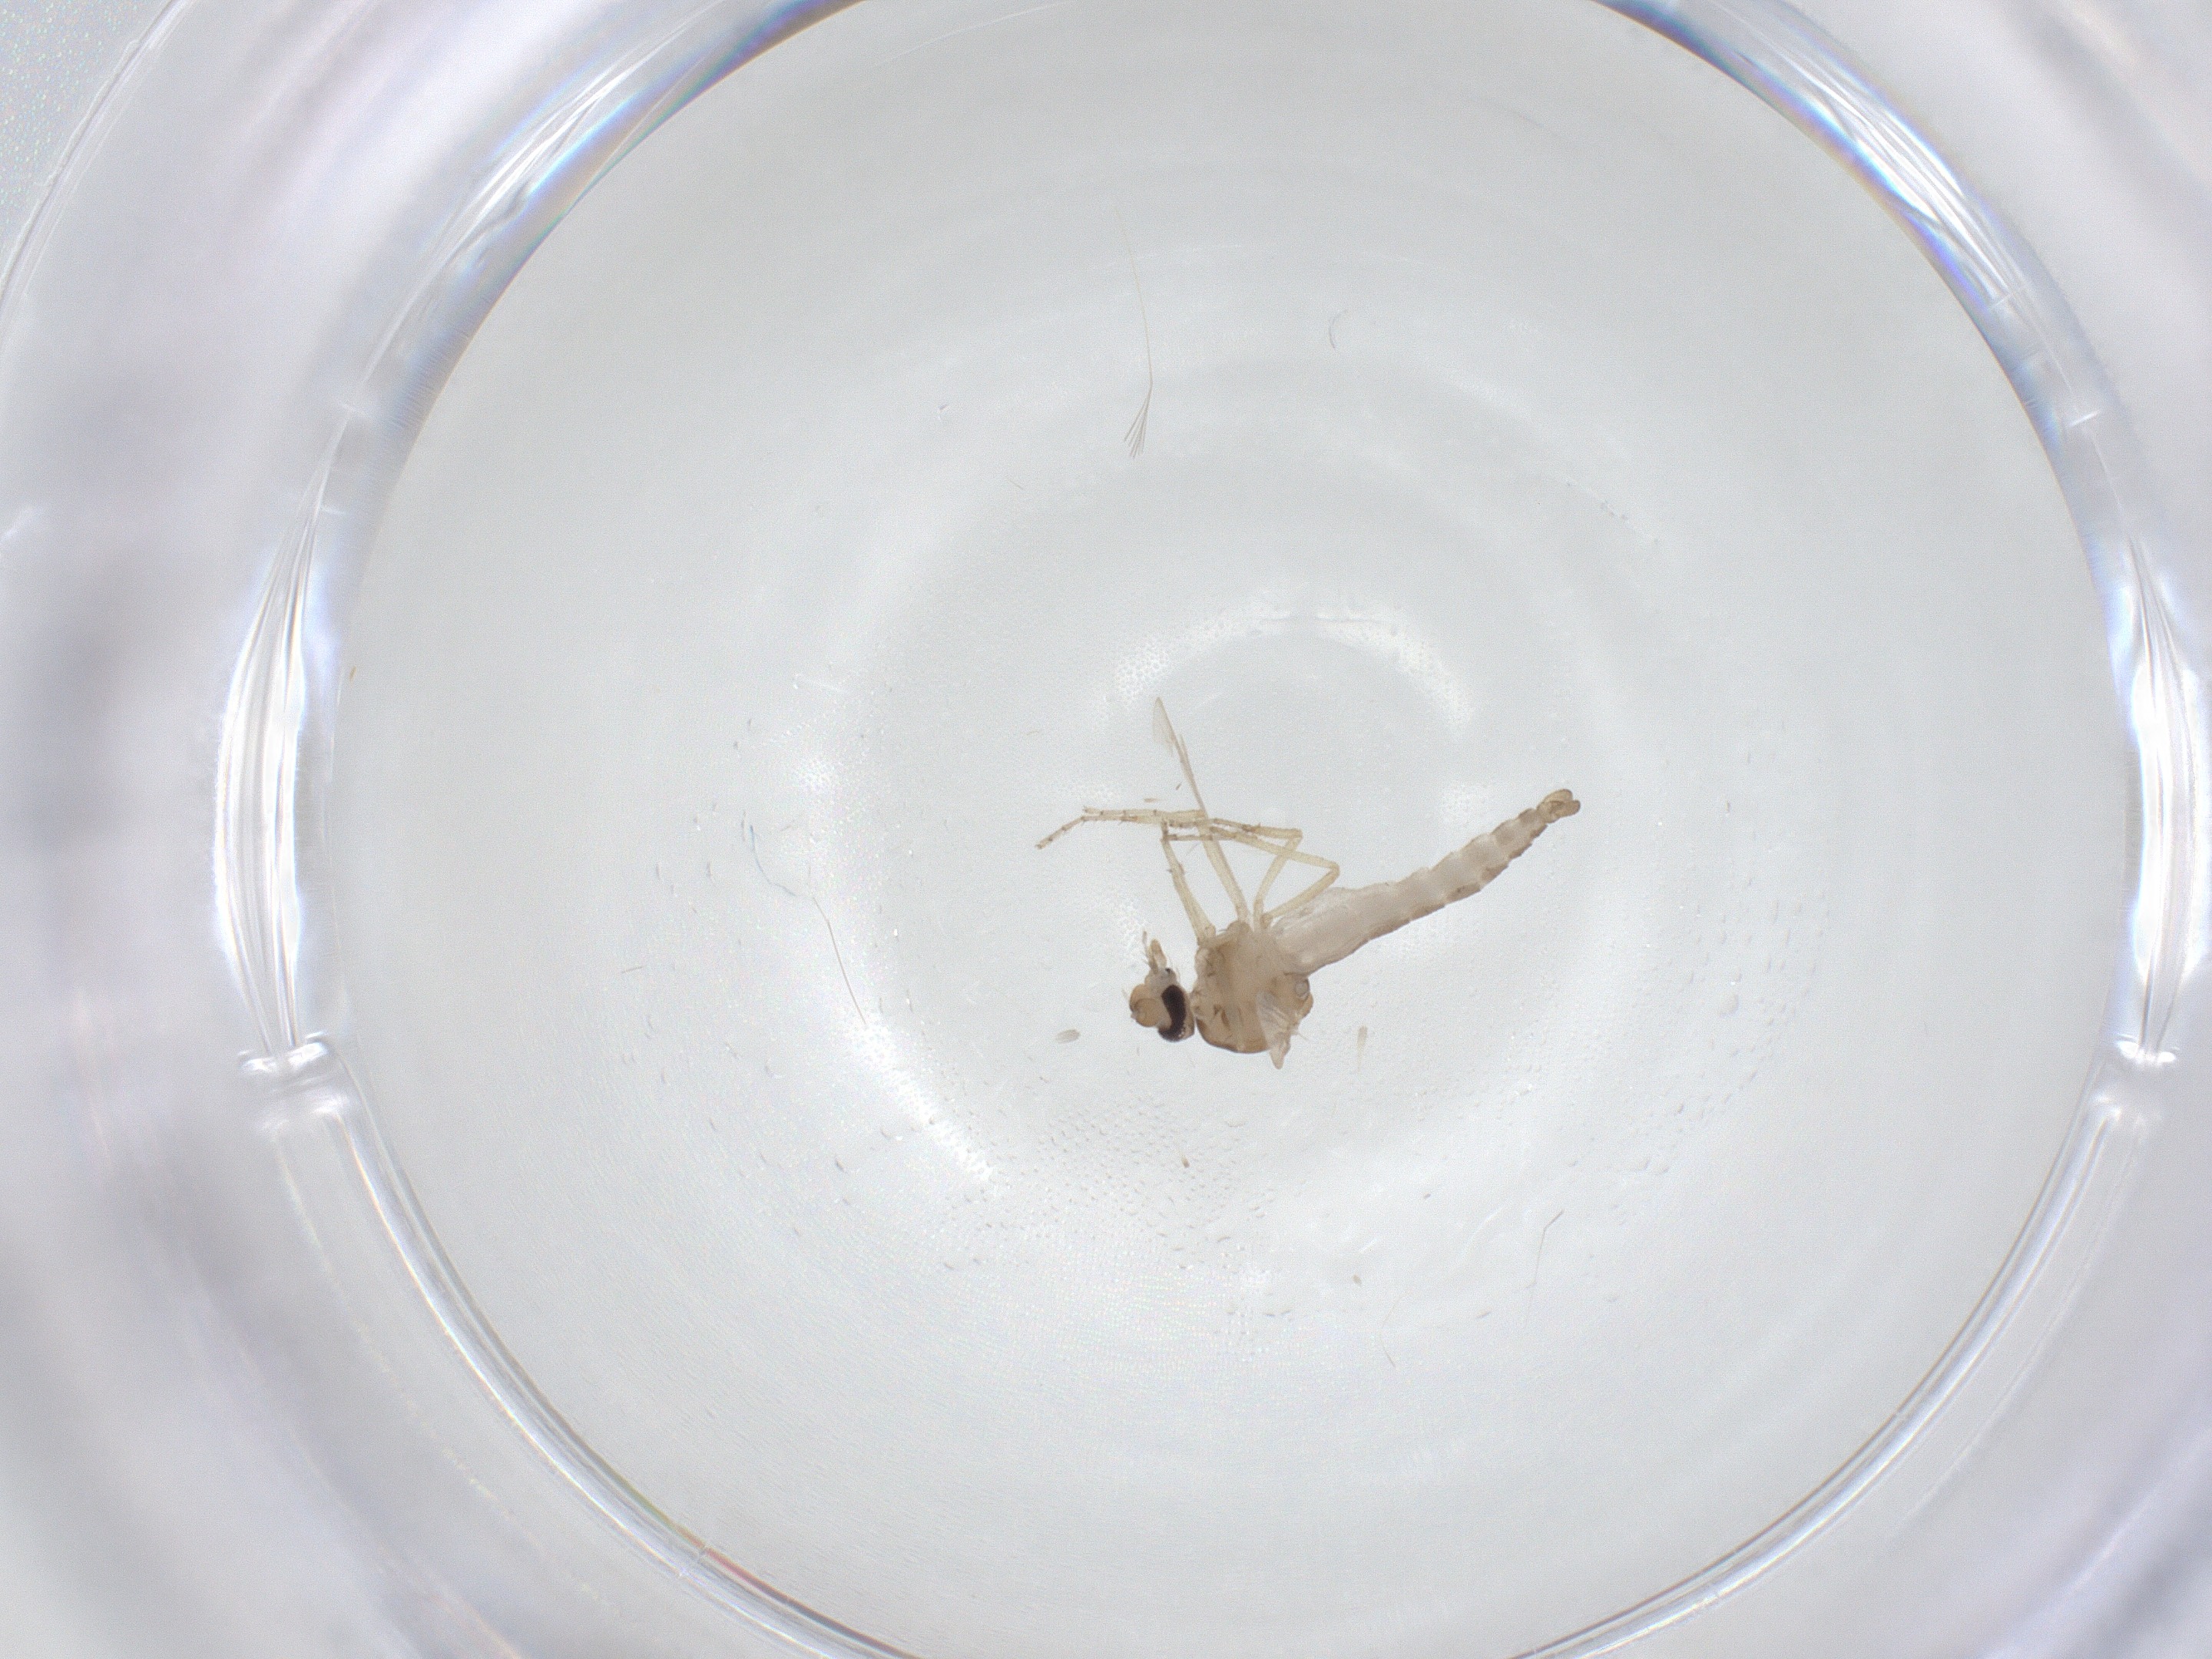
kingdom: Animalia
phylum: Arthropoda
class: Insecta
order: Diptera
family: Ceratopogonidae
